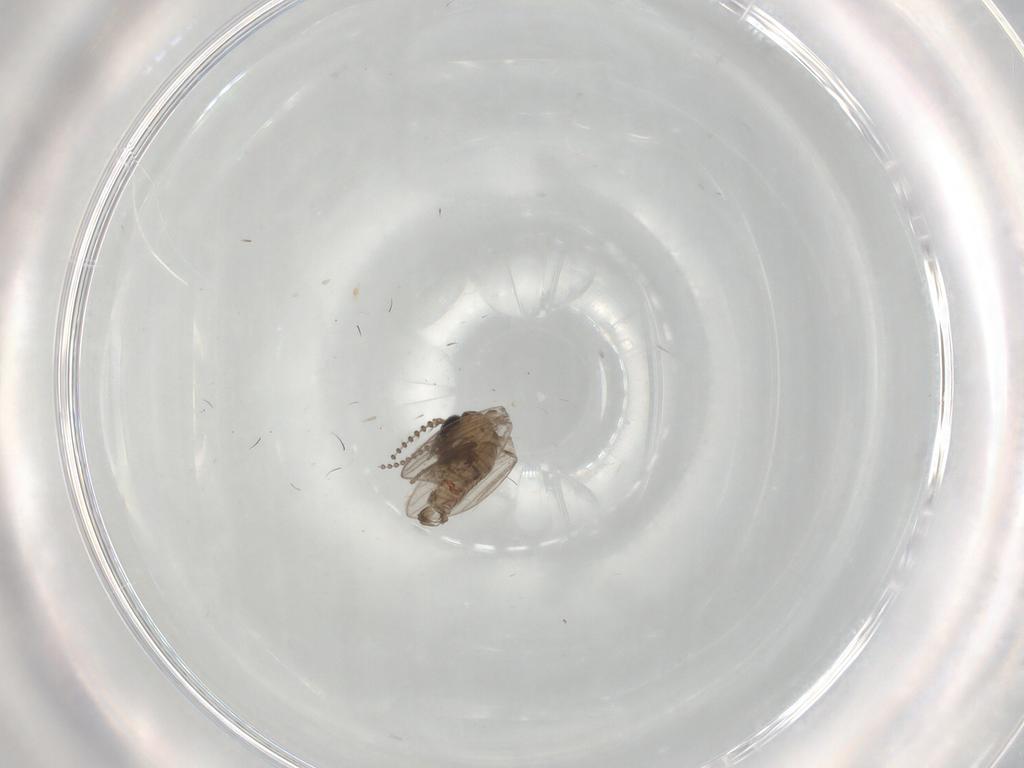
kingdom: Animalia
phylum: Arthropoda
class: Insecta
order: Diptera
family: Psychodidae
